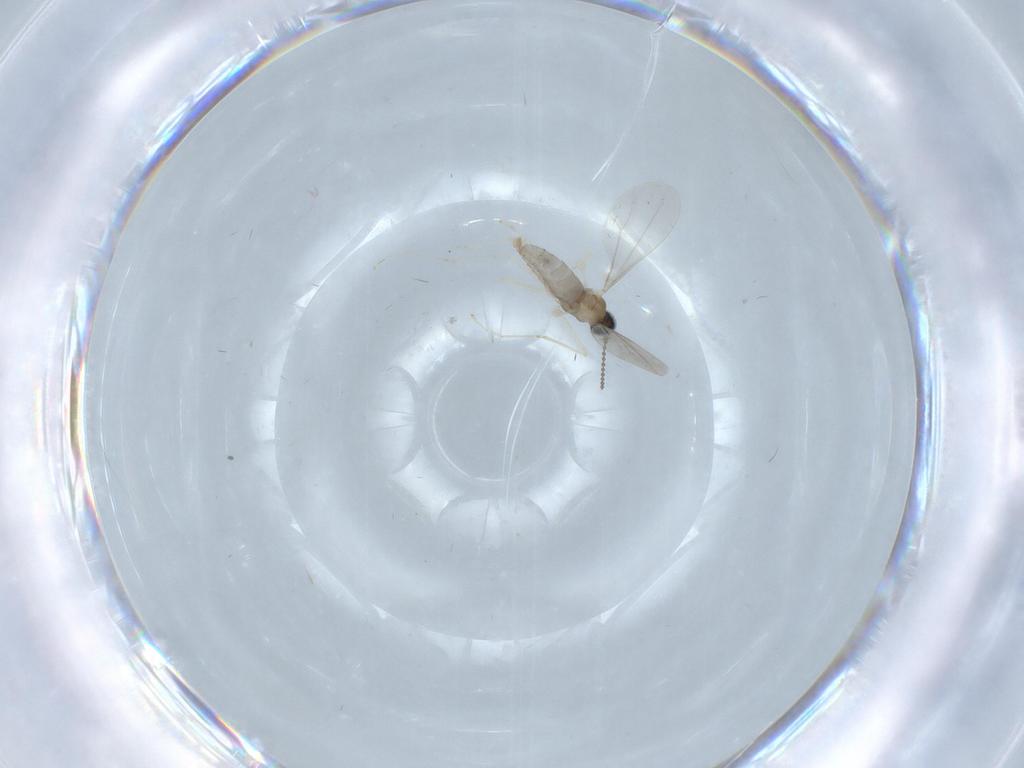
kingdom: Animalia
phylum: Arthropoda
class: Insecta
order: Diptera
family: Cecidomyiidae
